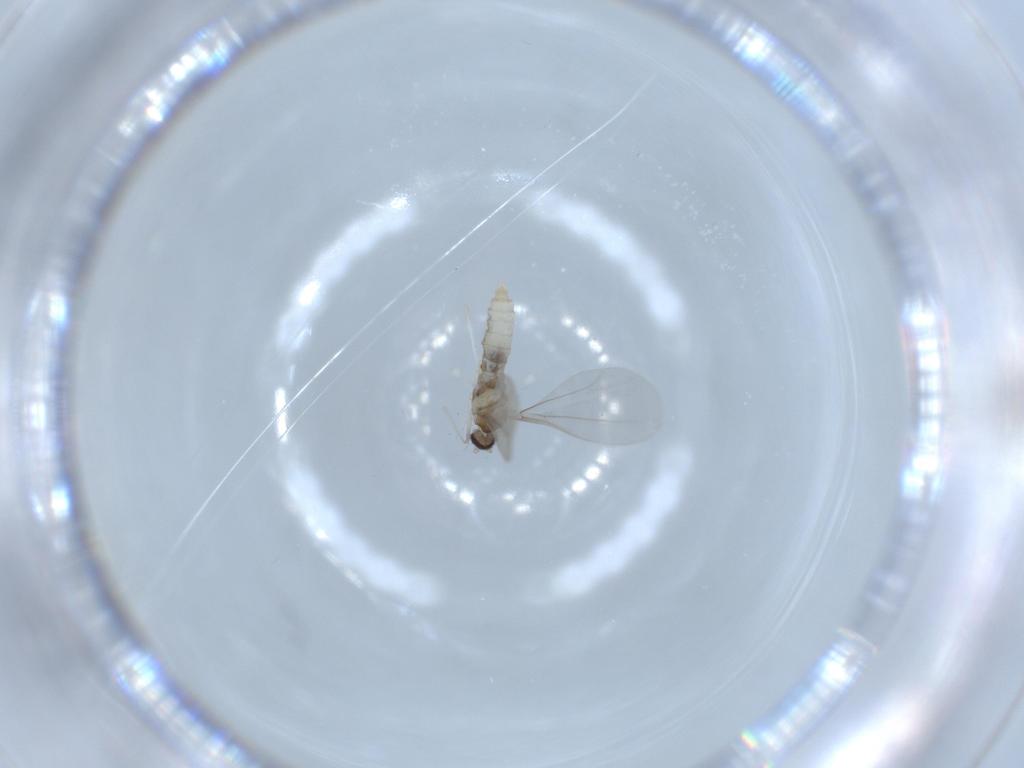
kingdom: Animalia
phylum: Arthropoda
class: Insecta
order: Diptera
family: Cecidomyiidae
